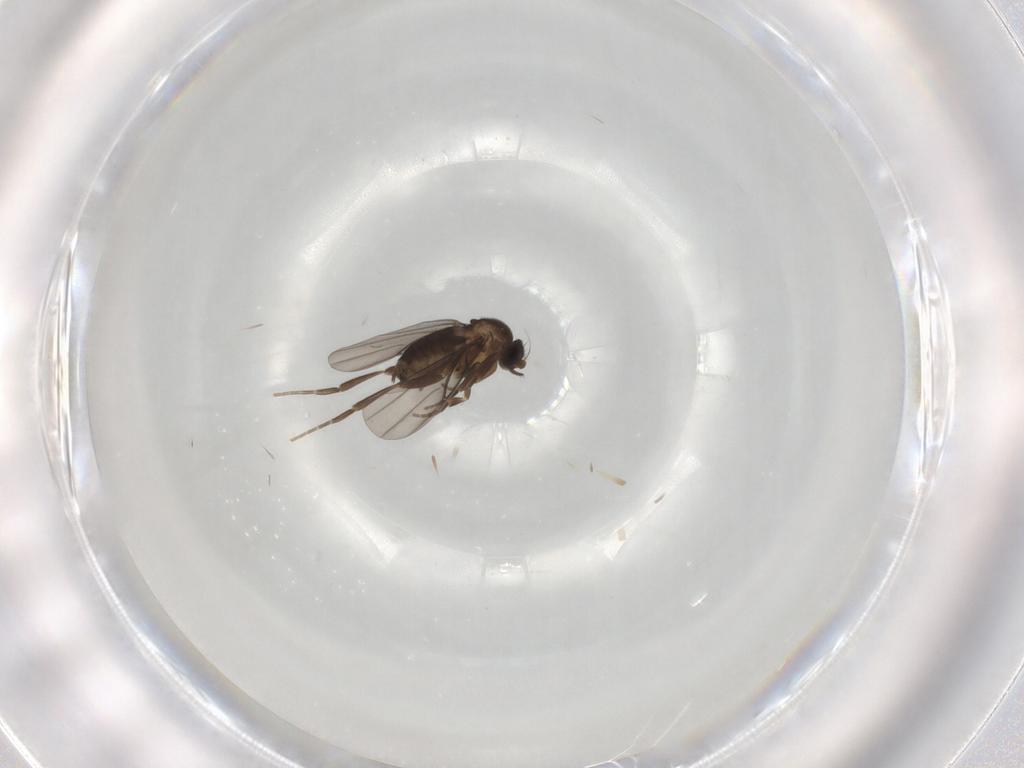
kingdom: Animalia
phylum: Arthropoda
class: Insecta
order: Diptera
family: Phoridae
